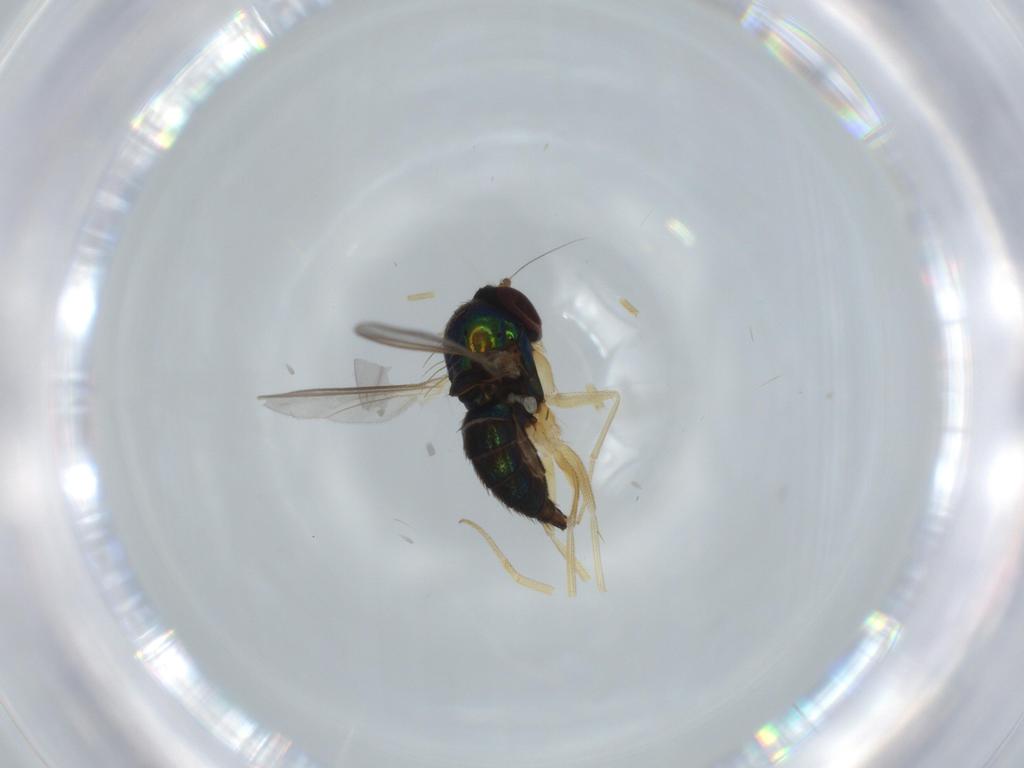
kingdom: Animalia
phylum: Arthropoda
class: Insecta
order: Diptera
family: Dolichopodidae
